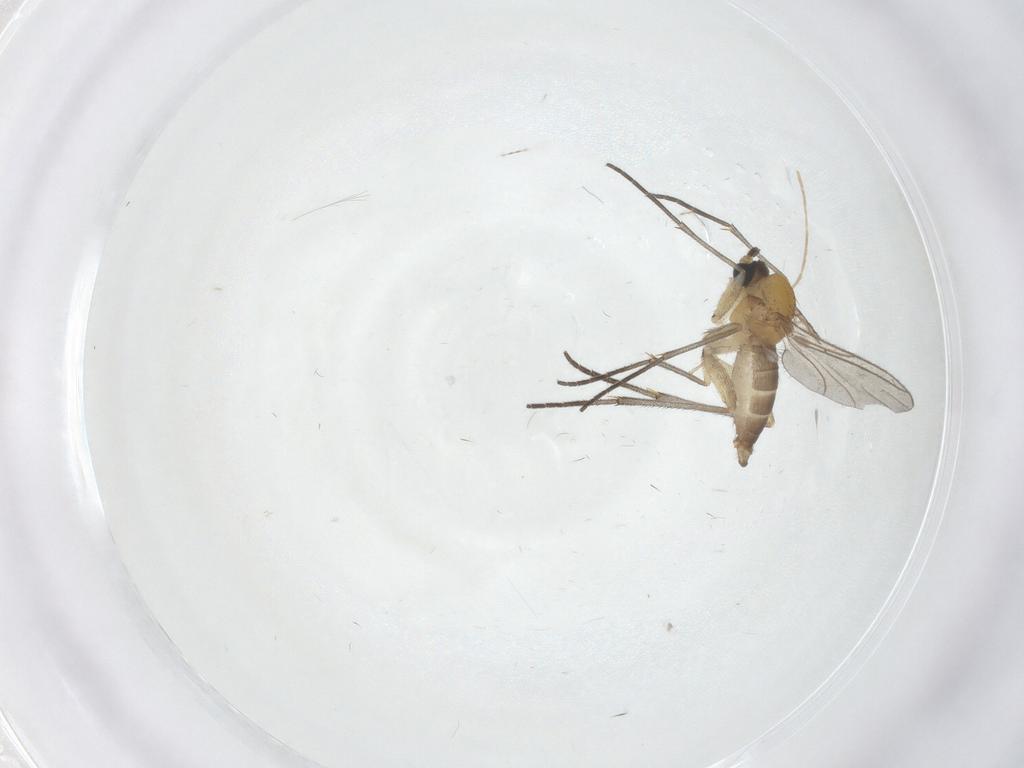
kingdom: Animalia
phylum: Arthropoda
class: Insecta
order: Diptera
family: Sciaridae
